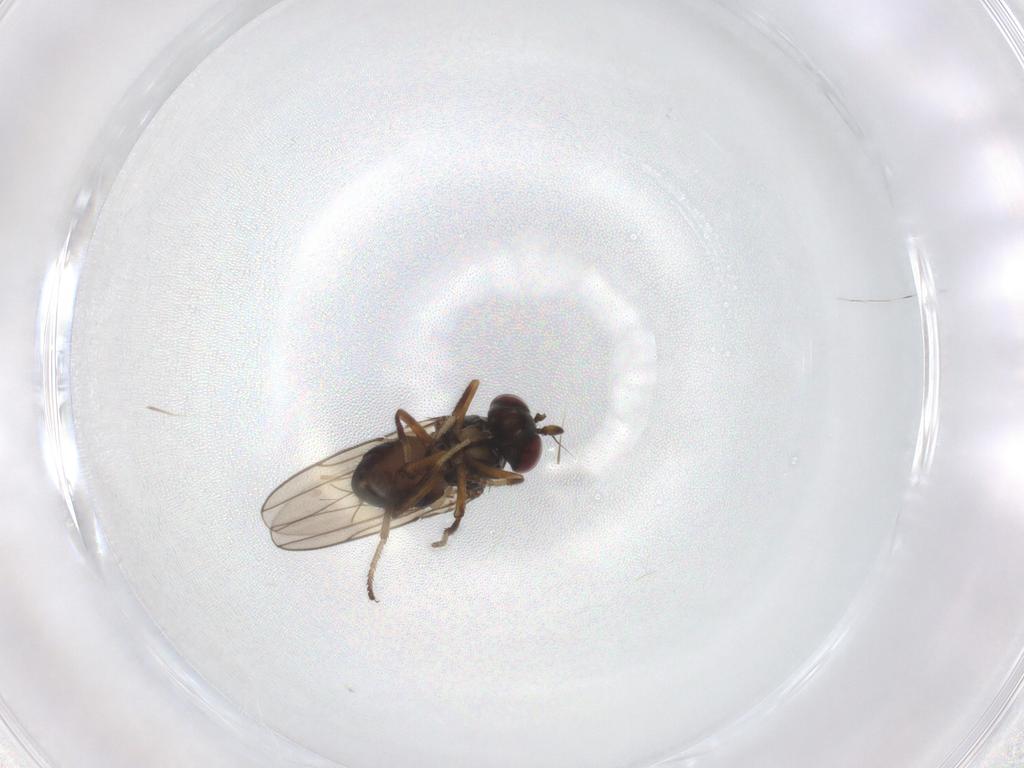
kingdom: Animalia
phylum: Arthropoda
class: Insecta
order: Diptera
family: Ephydridae
